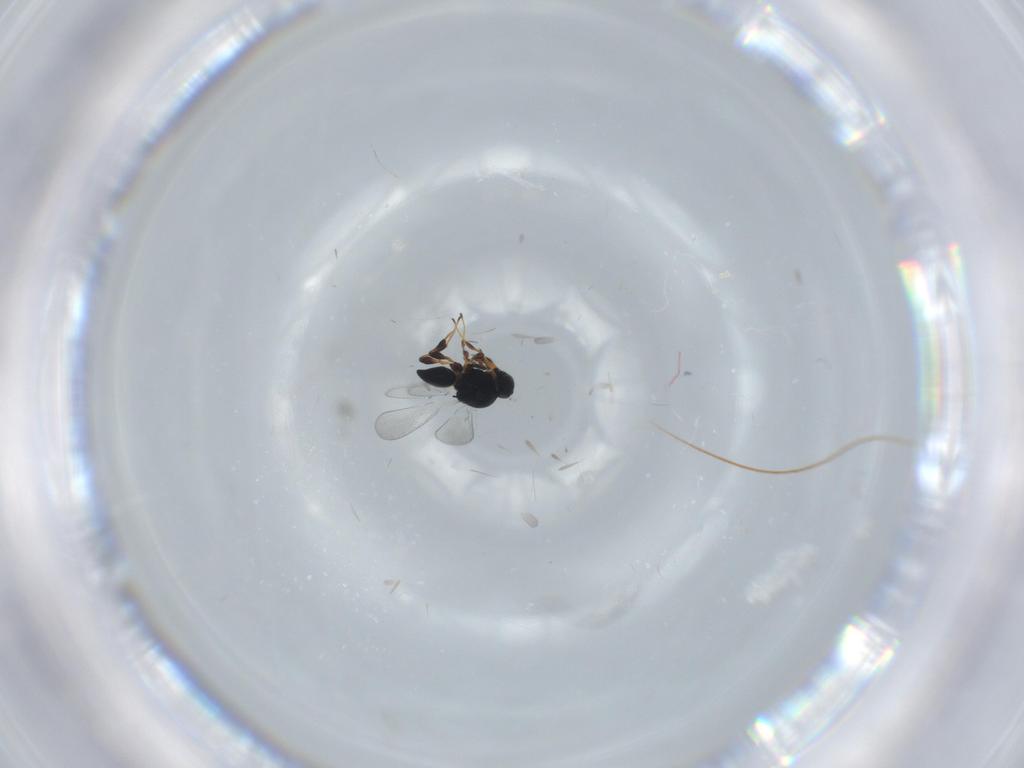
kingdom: Animalia
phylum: Arthropoda
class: Insecta
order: Hymenoptera
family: Platygastridae
